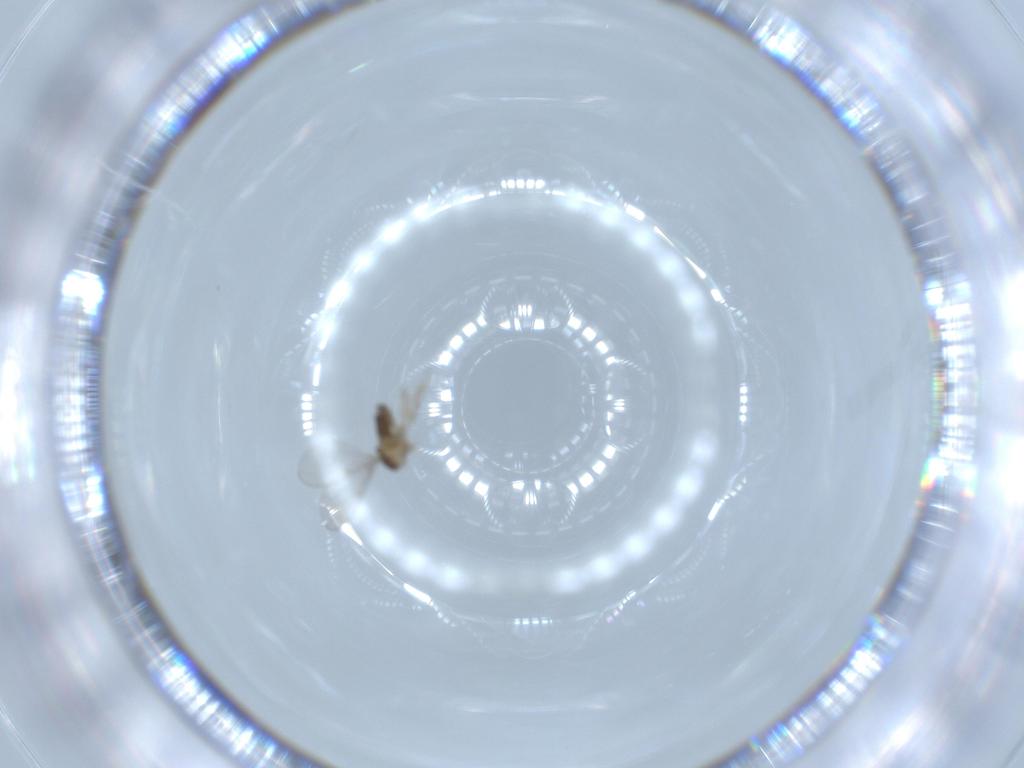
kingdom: Animalia
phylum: Arthropoda
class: Insecta
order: Diptera
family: Cecidomyiidae
